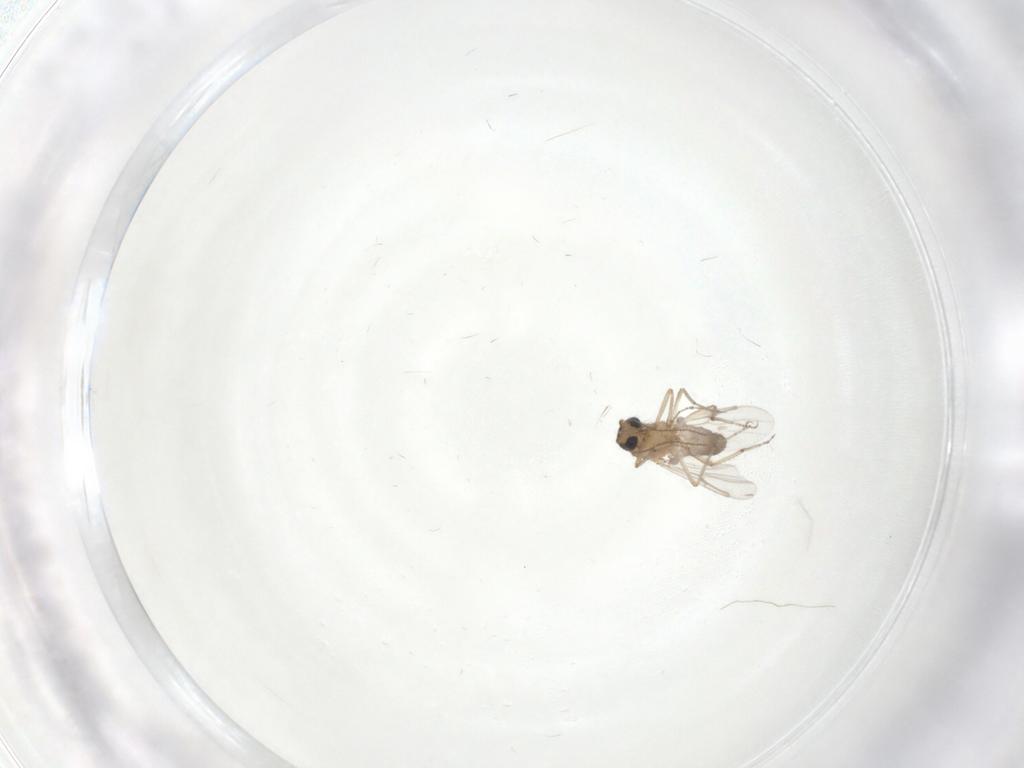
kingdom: Animalia
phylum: Arthropoda
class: Insecta
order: Diptera
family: Ceratopogonidae
